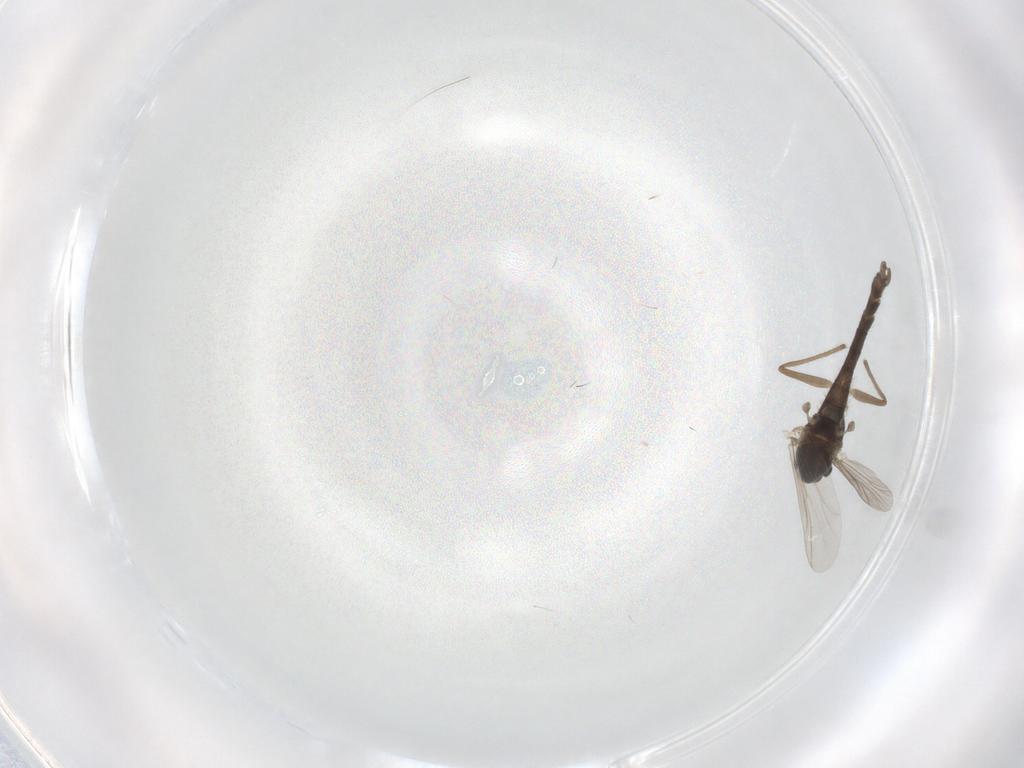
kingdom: Animalia
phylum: Arthropoda
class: Insecta
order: Diptera
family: Chironomidae
